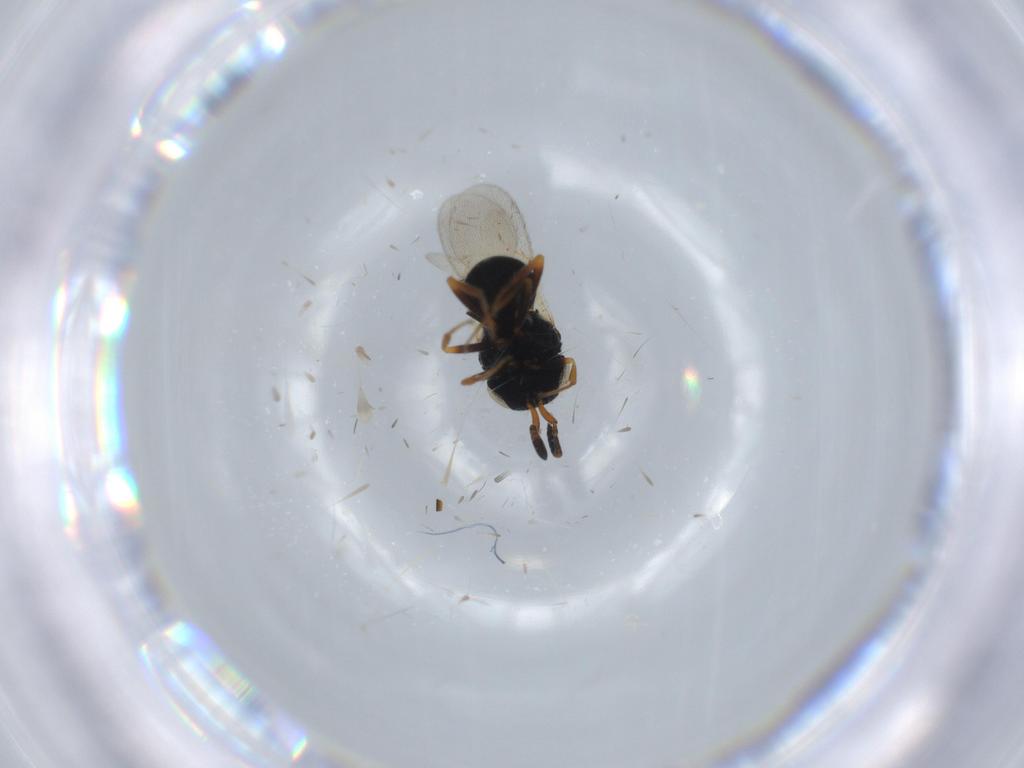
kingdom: Animalia
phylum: Arthropoda
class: Insecta
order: Hymenoptera
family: Scelionidae
